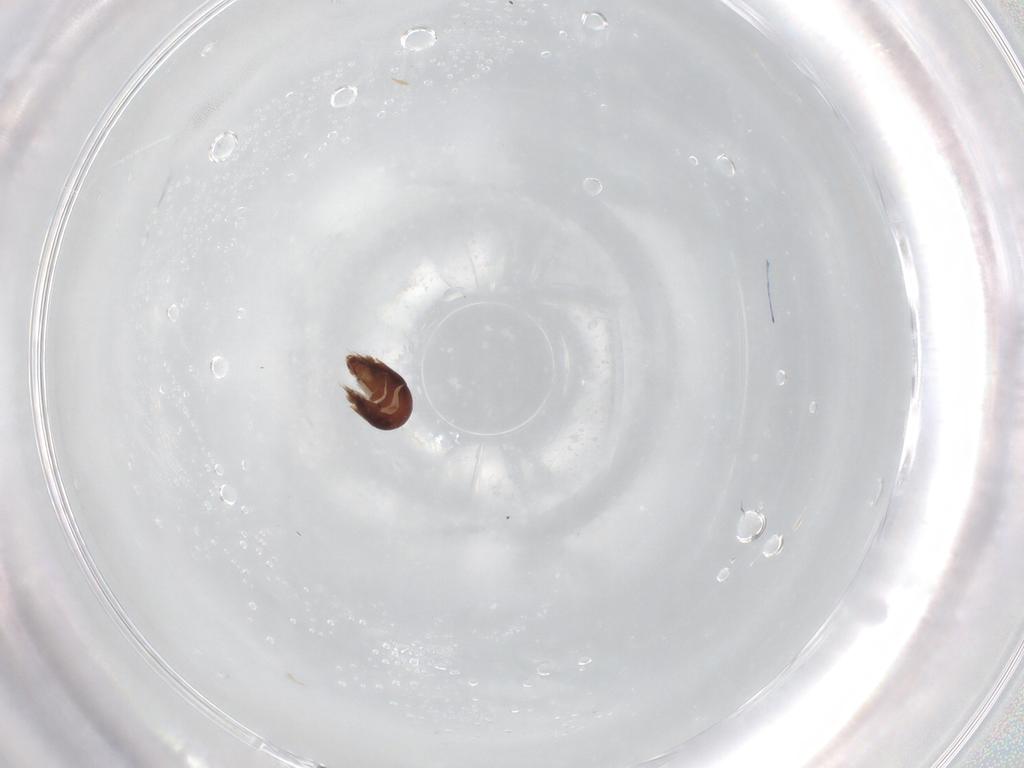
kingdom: Animalia
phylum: Arthropoda
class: Arachnida
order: Sarcoptiformes
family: Humerobatidae
